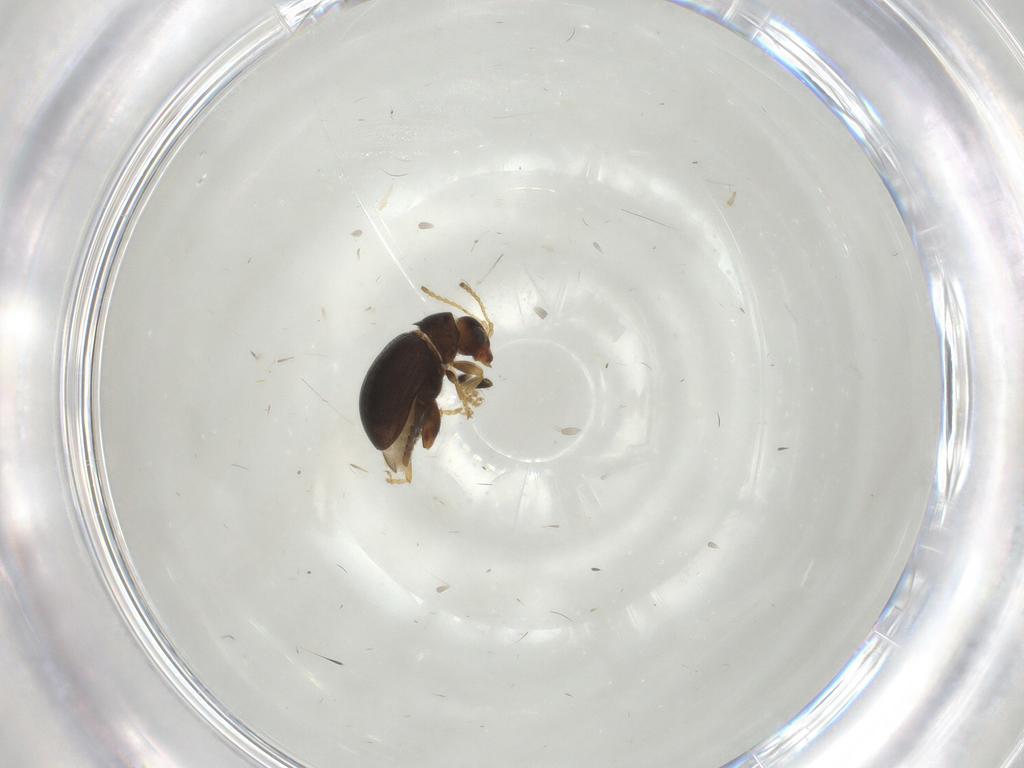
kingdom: Animalia
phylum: Arthropoda
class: Insecta
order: Coleoptera
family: Chrysomelidae
